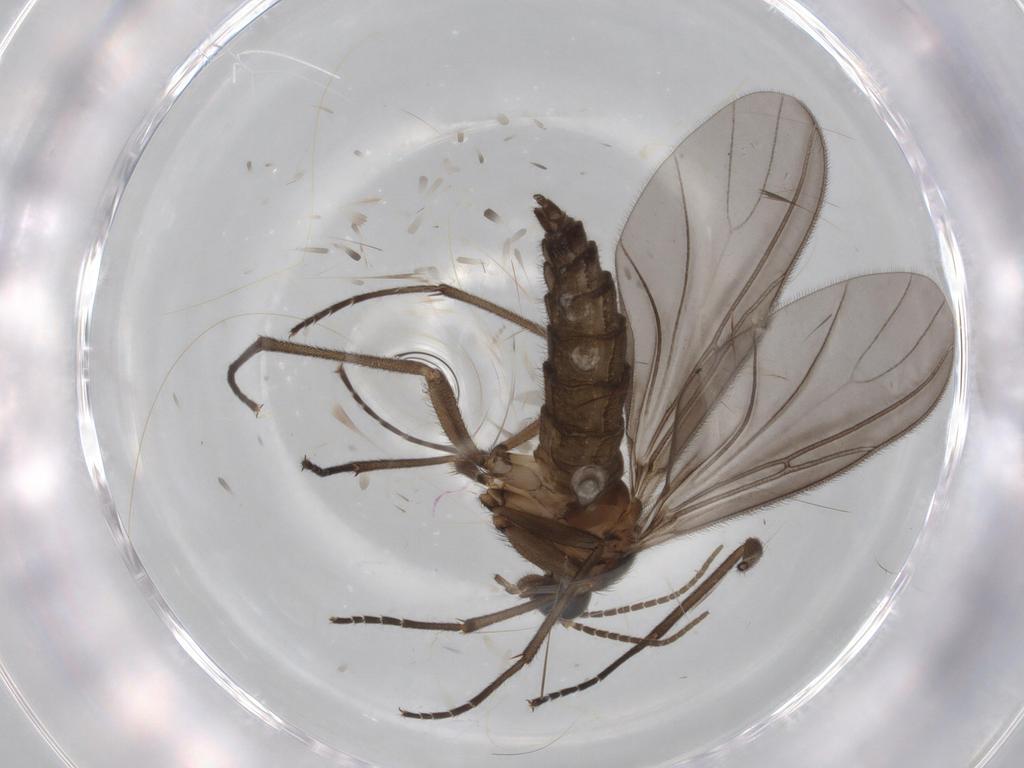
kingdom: Animalia
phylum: Arthropoda
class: Insecta
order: Diptera
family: Sciaridae
